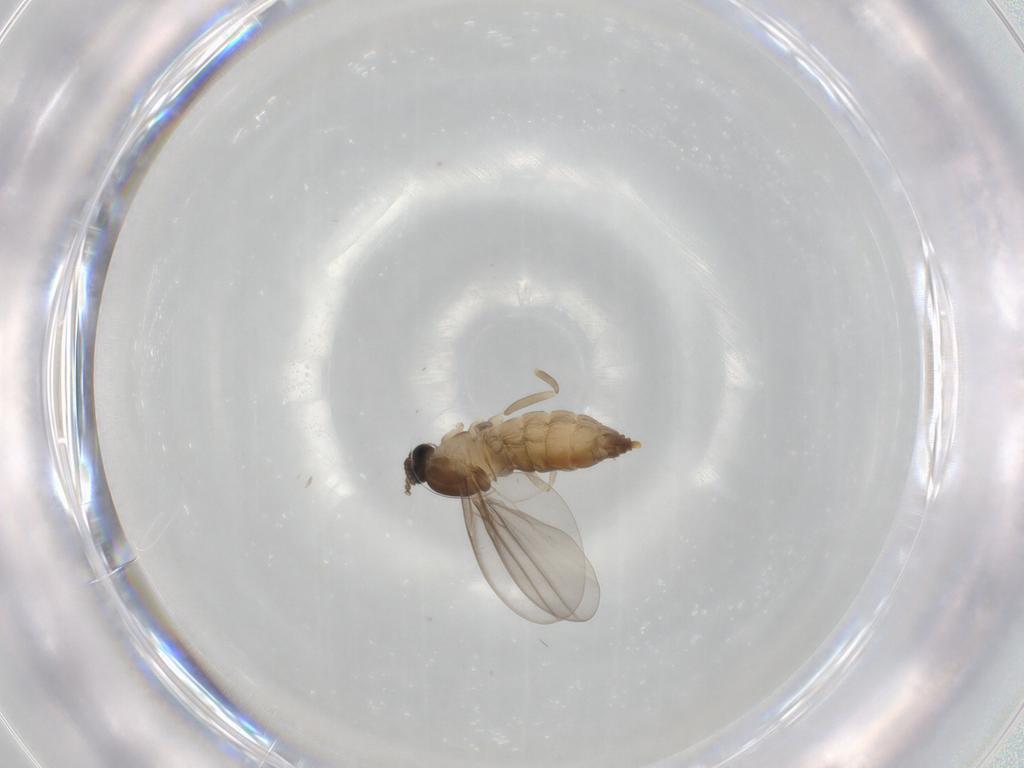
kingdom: Animalia
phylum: Arthropoda
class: Insecta
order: Diptera
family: Cecidomyiidae
